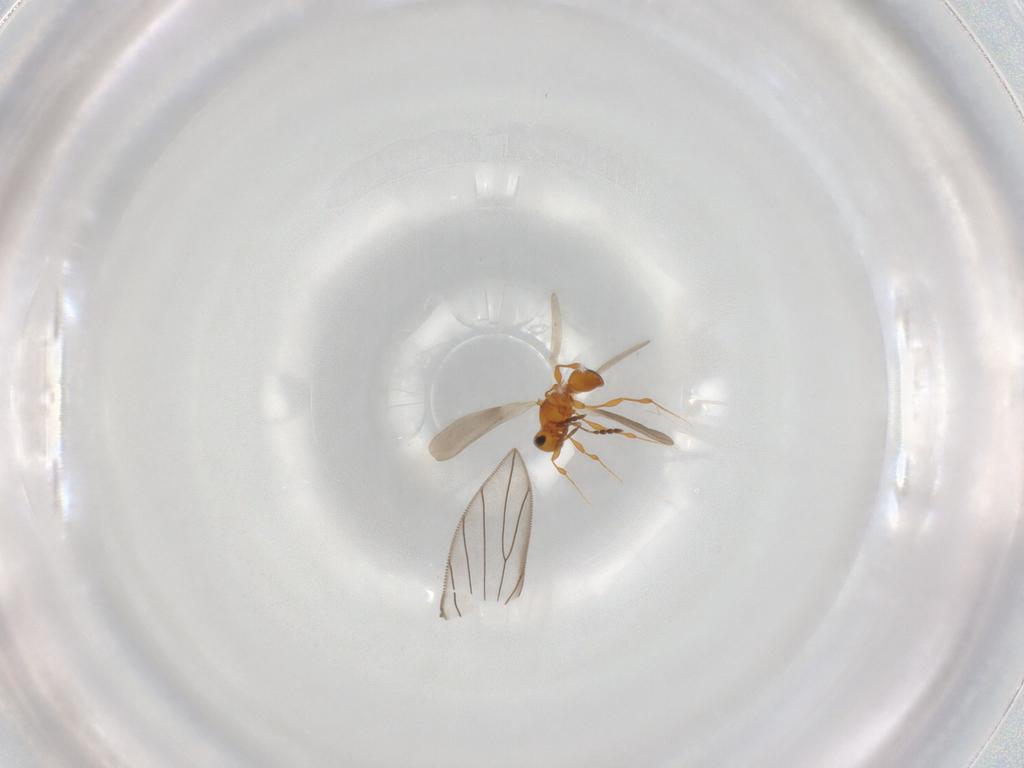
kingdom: Animalia
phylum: Arthropoda
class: Insecta
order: Hymenoptera
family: Platygastridae
